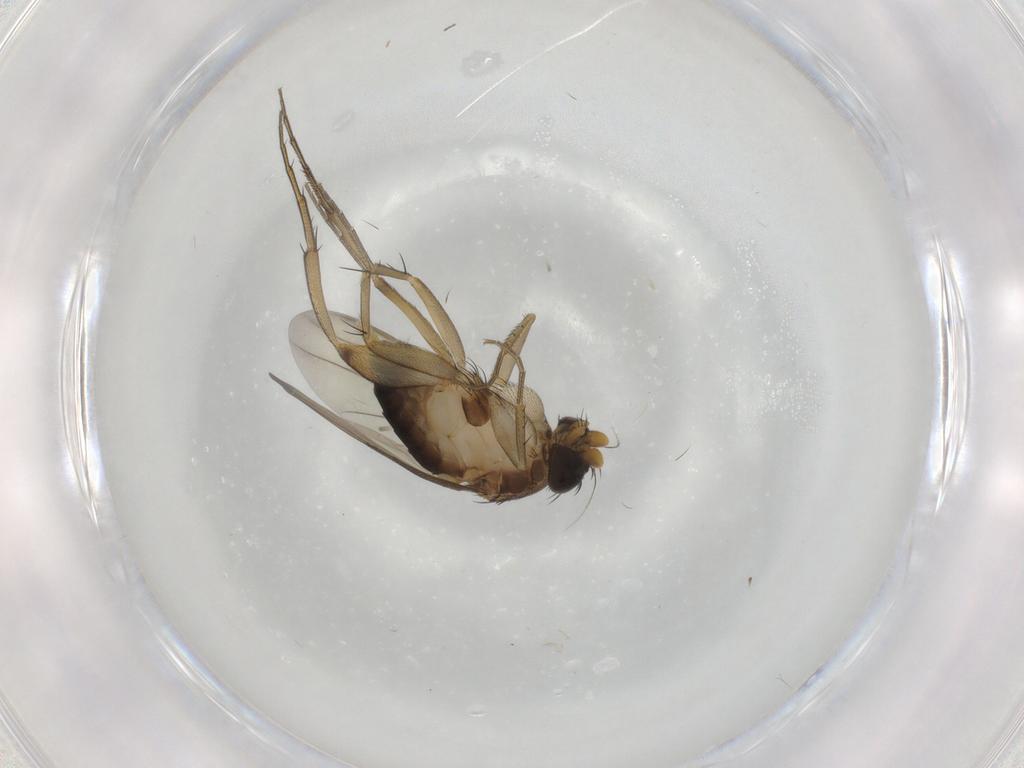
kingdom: Animalia
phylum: Arthropoda
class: Insecta
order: Diptera
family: Phoridae
